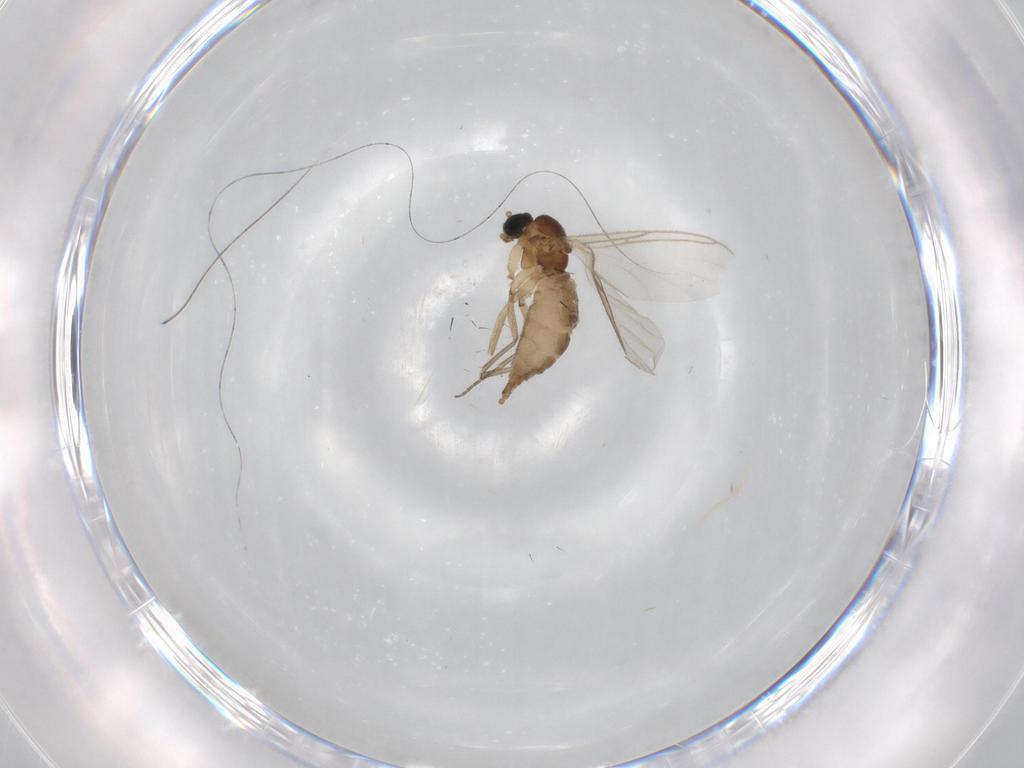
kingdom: Animalia
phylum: Arthropoda
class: Insecta
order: Diptera
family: Sciaridae
